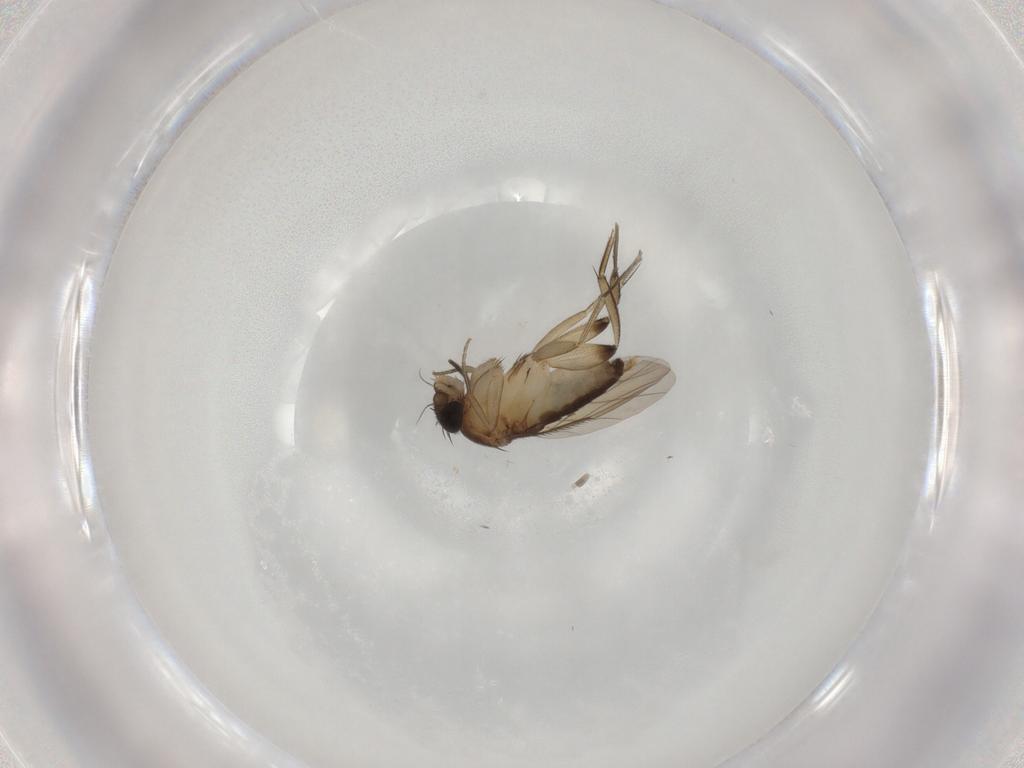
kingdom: Animalia
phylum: Arthropoda
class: Insecta
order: Diptera
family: Phoridae
